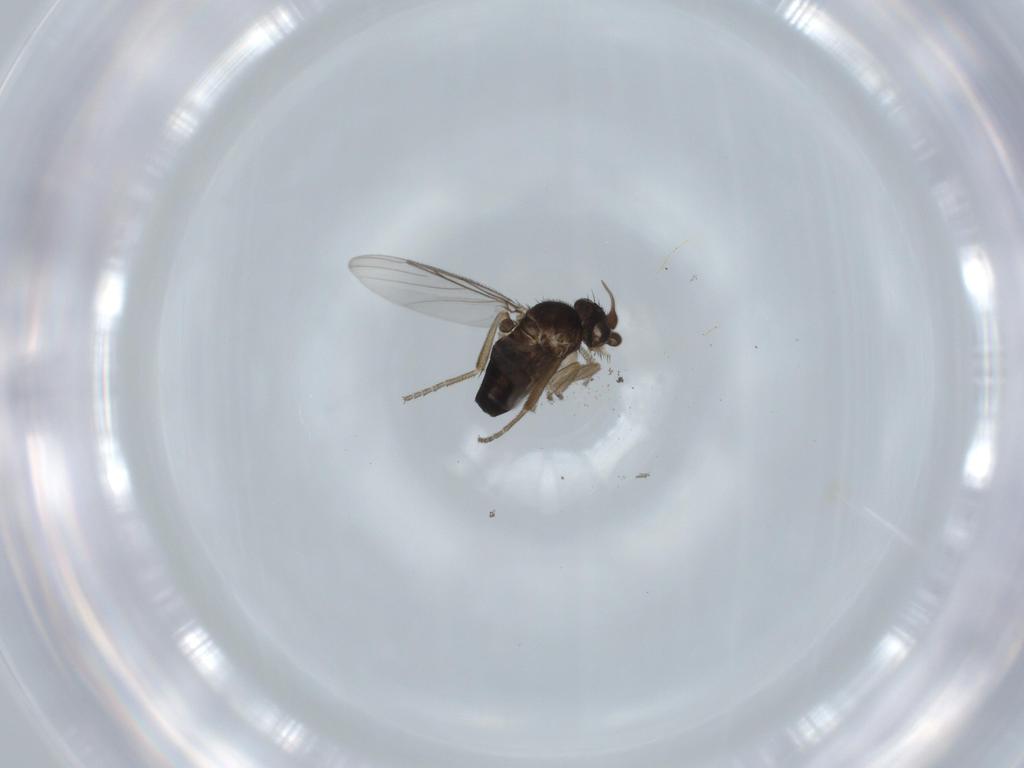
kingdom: Animalia
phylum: Arthropoda
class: Insecta
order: Diptera
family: Phoridae
